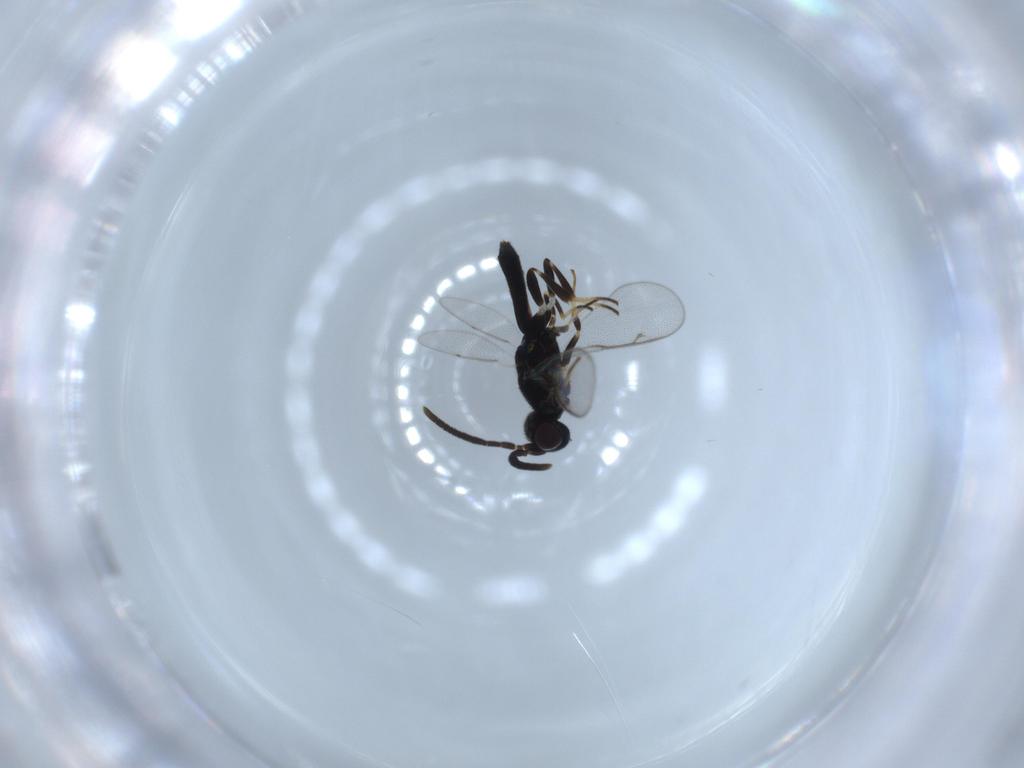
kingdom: Animalia
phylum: Arthropoda
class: Insecta
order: Hymenoptera
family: Eupelmidae
